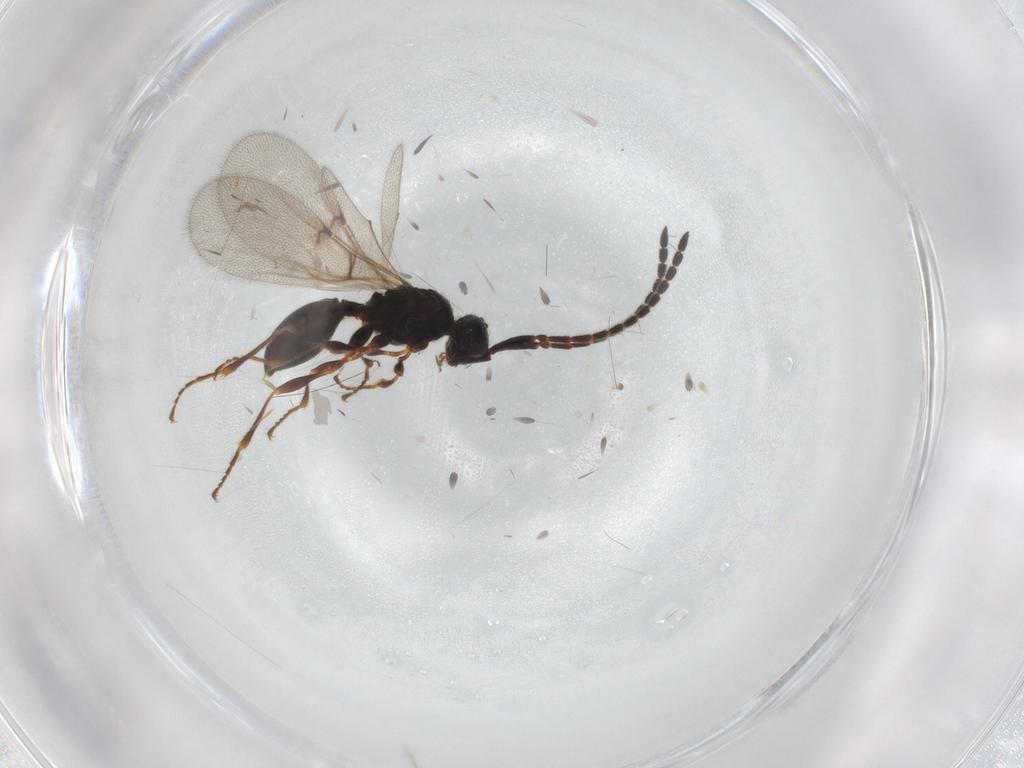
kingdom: Animalia
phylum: Arthropoda
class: Insecta
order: Hymenoptera
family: Diapriidae
